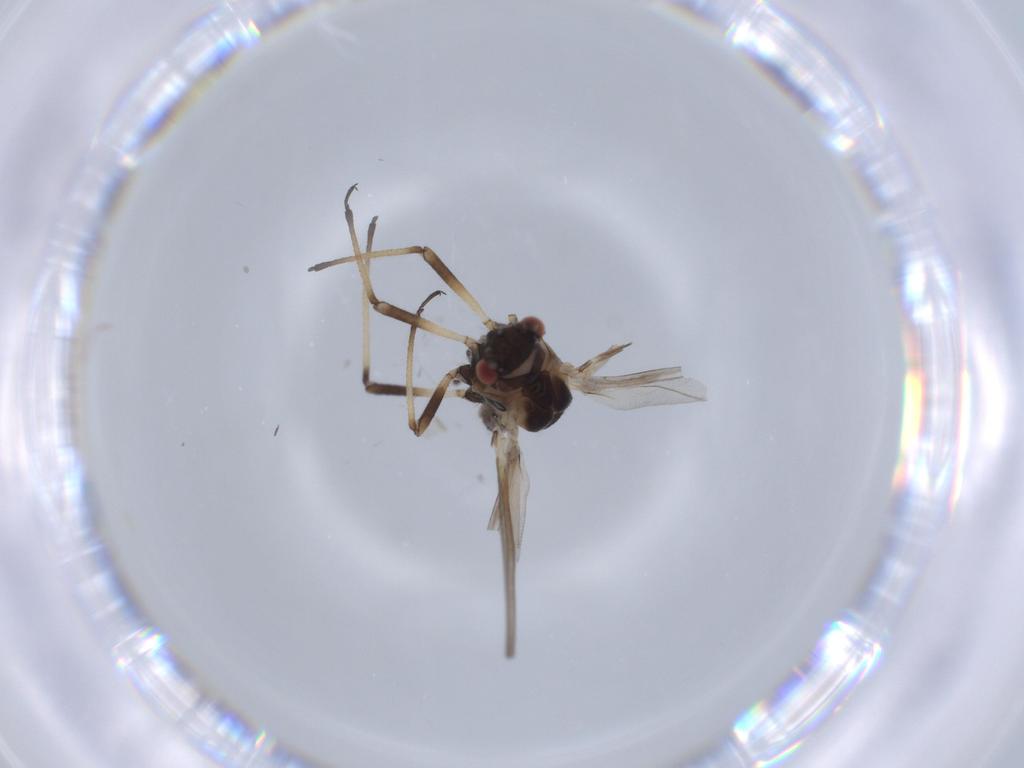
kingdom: Animalia
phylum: Arthropoda
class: Insecta
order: Hemiptera
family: Aphididae
